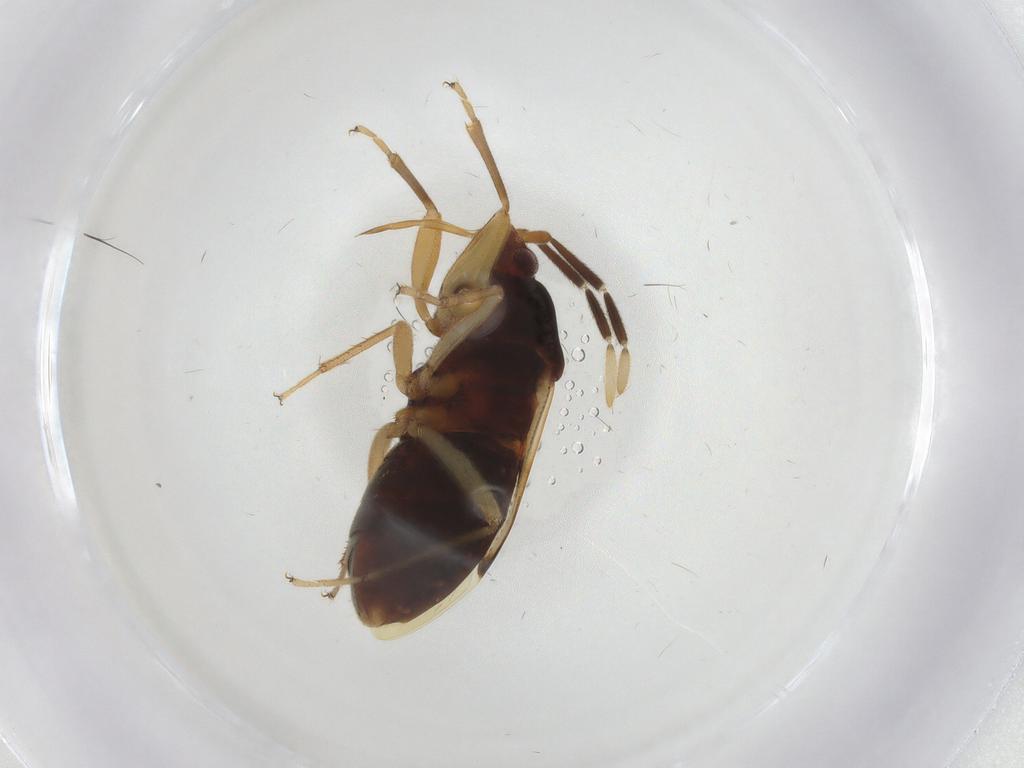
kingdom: Animalia
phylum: Arthropoda
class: Insecta
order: Hemiptera
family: Rhyparochromidae
